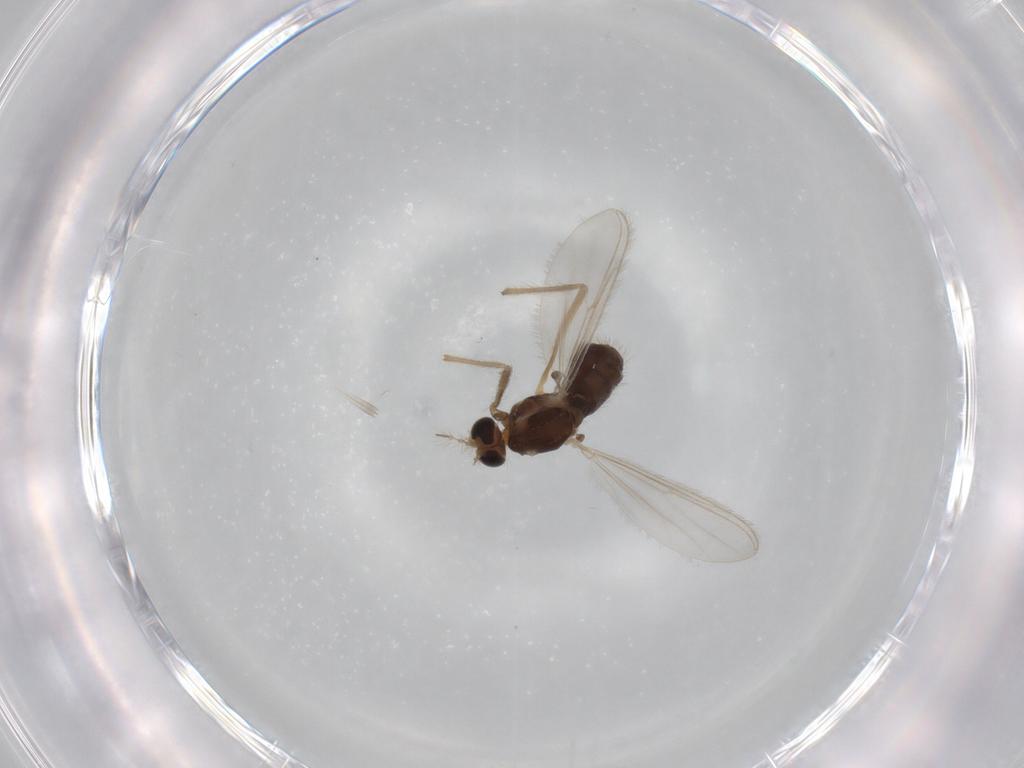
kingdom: Animalia
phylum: Arthropoda
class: Insecta
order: Diptera
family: Chironomidae
